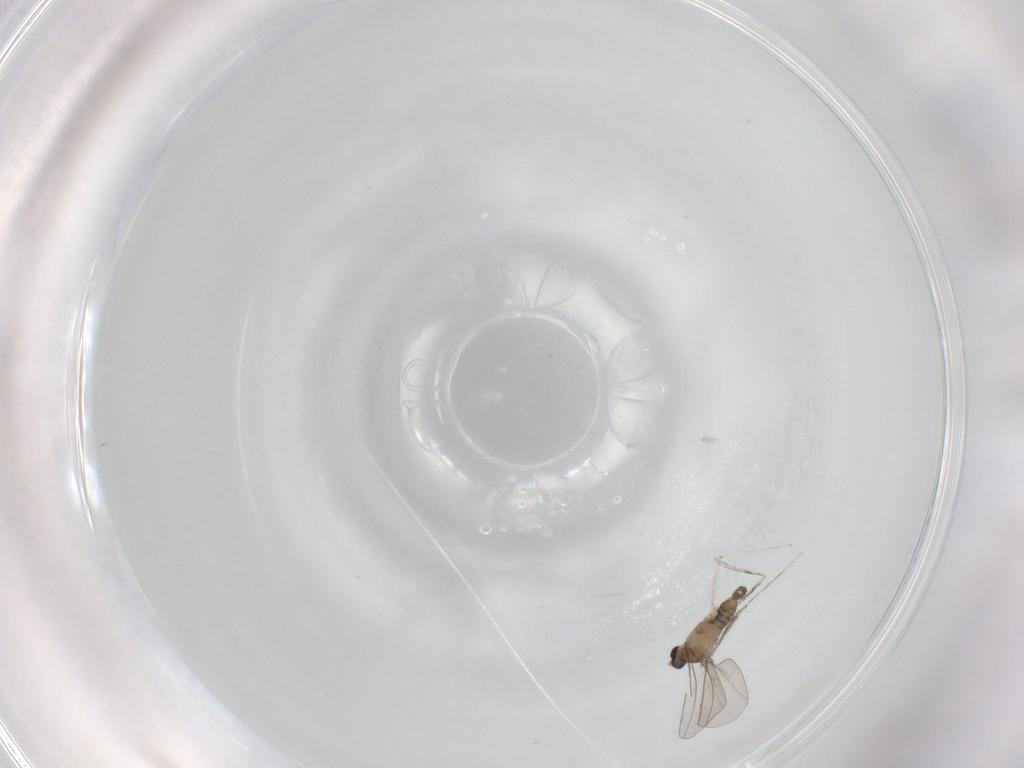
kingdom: Animalia
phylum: Arthropoda
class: Insecta
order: Diptera
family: Cecidomyiidae
